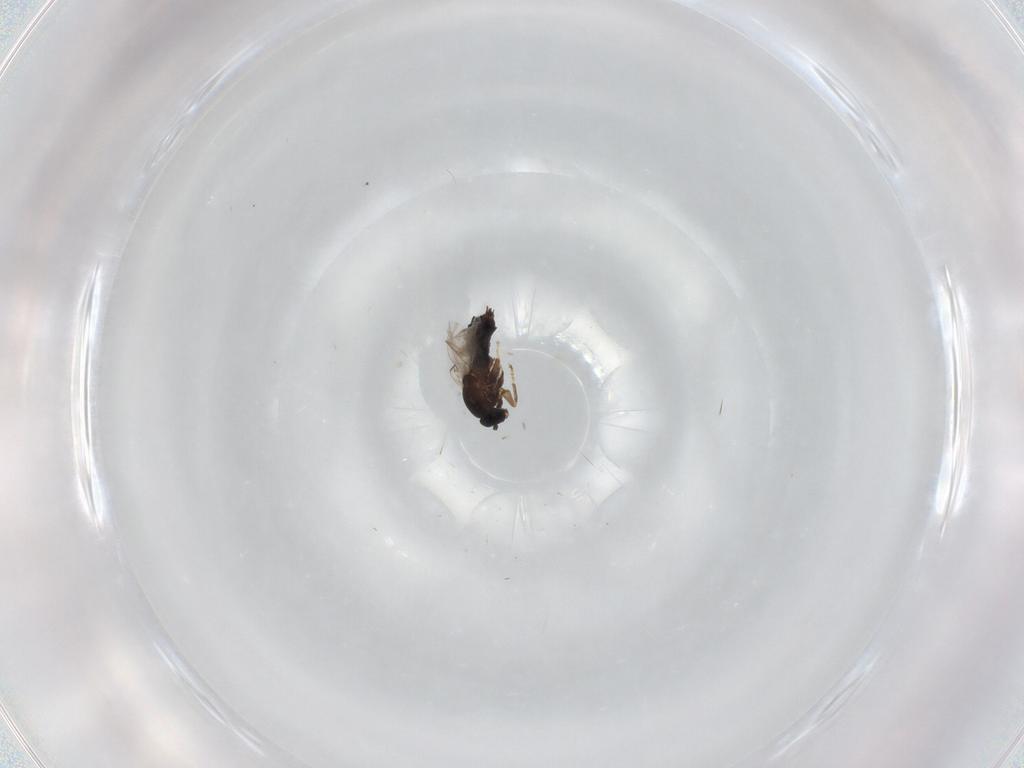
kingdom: Animalia
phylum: Arthropoda
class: Insecta
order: Diptera
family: Scatopsidae
